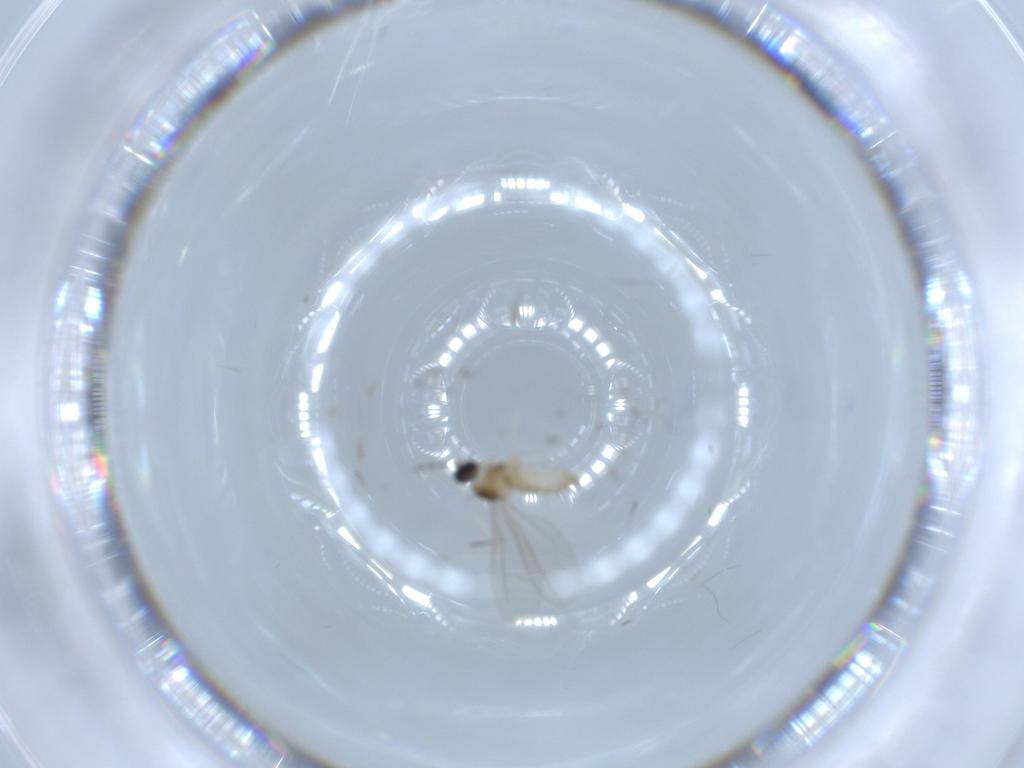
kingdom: Animalia
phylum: Arthropoda
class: Insecta
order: Diptera
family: Cecidomyiidae
